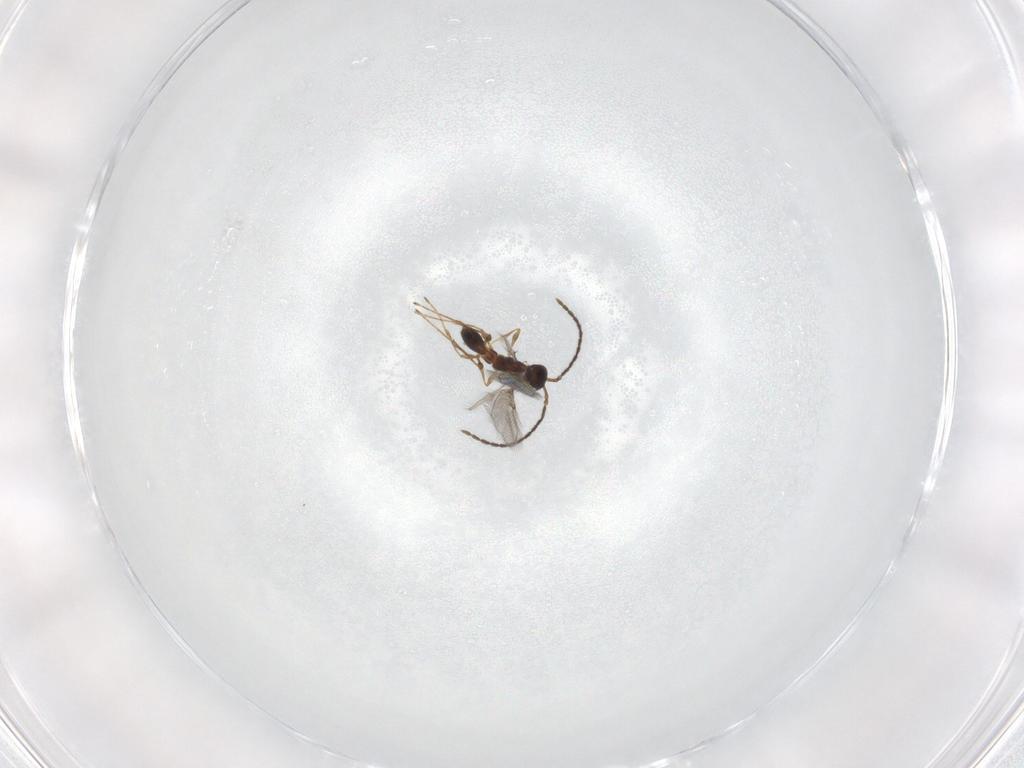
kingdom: Animalia
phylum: Arthropoda
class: Insecta
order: Hymenoptera
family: Diapriidae
